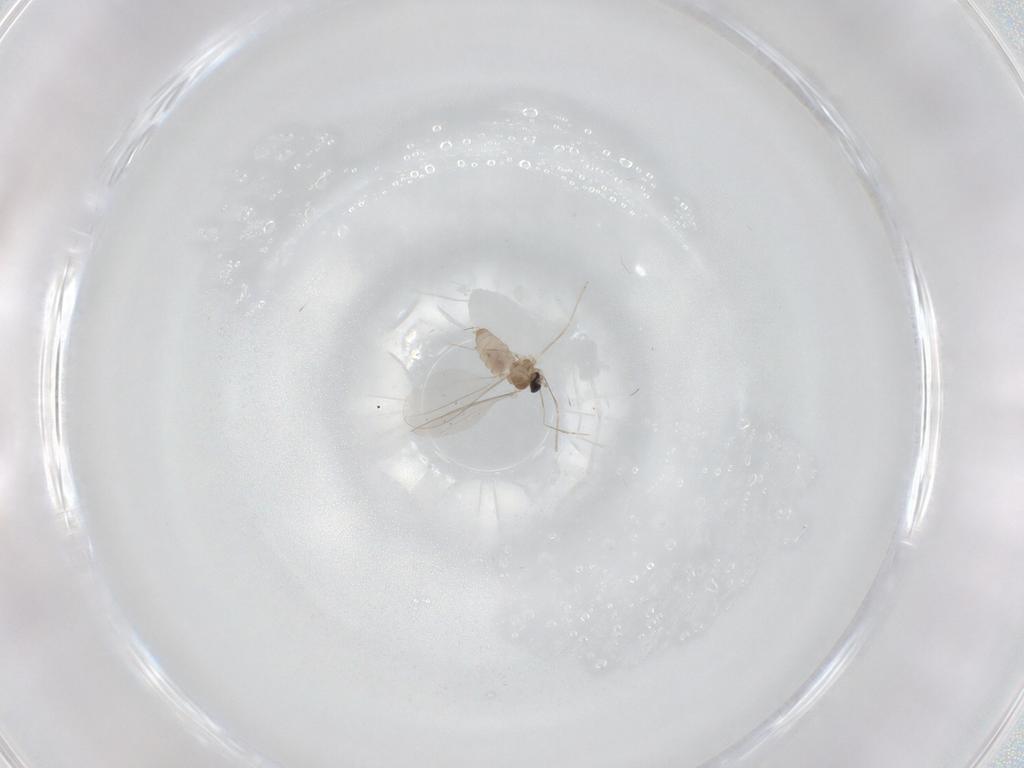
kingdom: Animalia
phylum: Arthropoda
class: Insecta
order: Diptera
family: Cecidomyiidae
